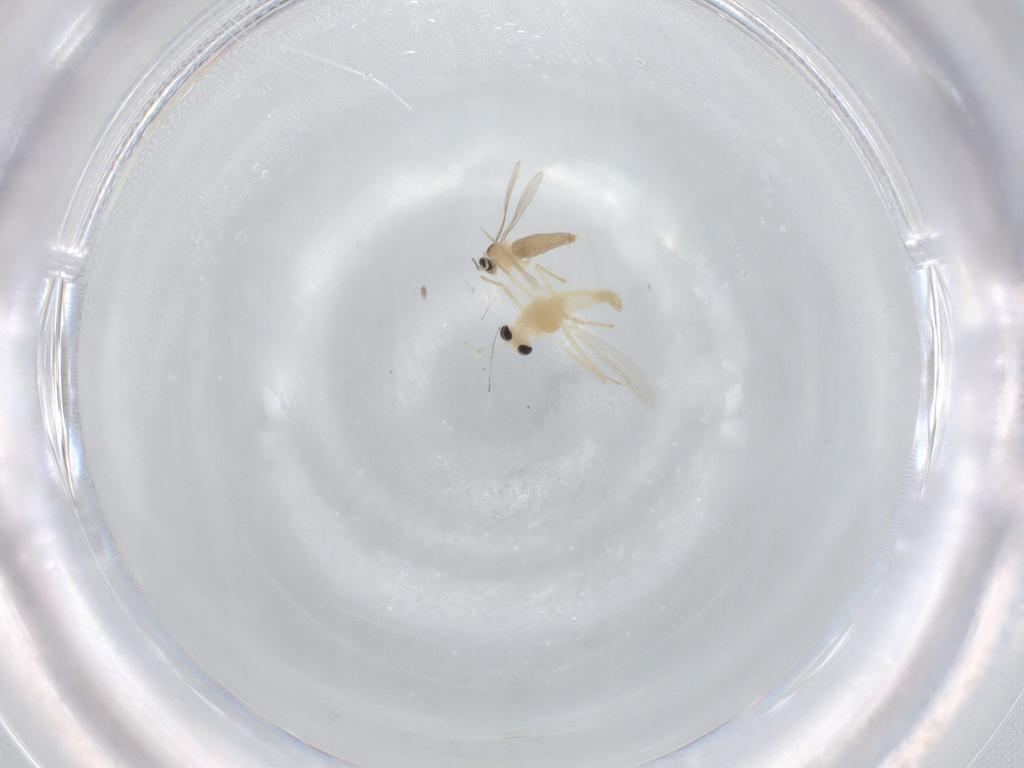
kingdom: Animalia
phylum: Arthropoda
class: Insecta
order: Diptera
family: Chironomidae
